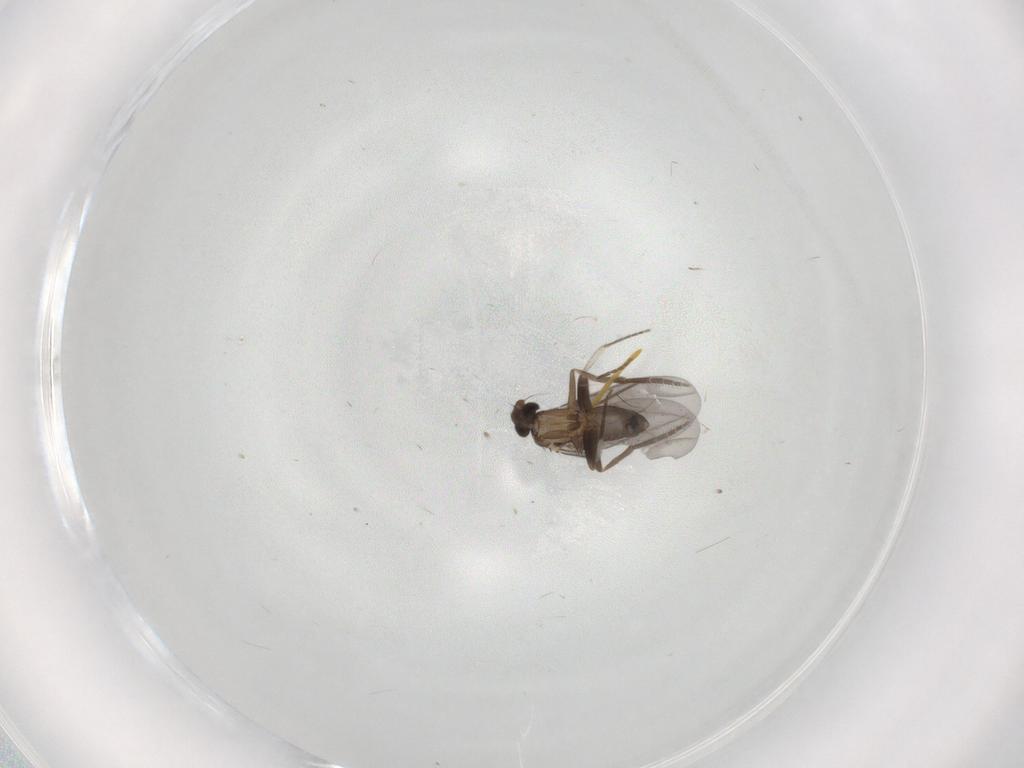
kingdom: Animalia
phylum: Arthropoda
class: Insecta
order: Diptera
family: Phoridae
